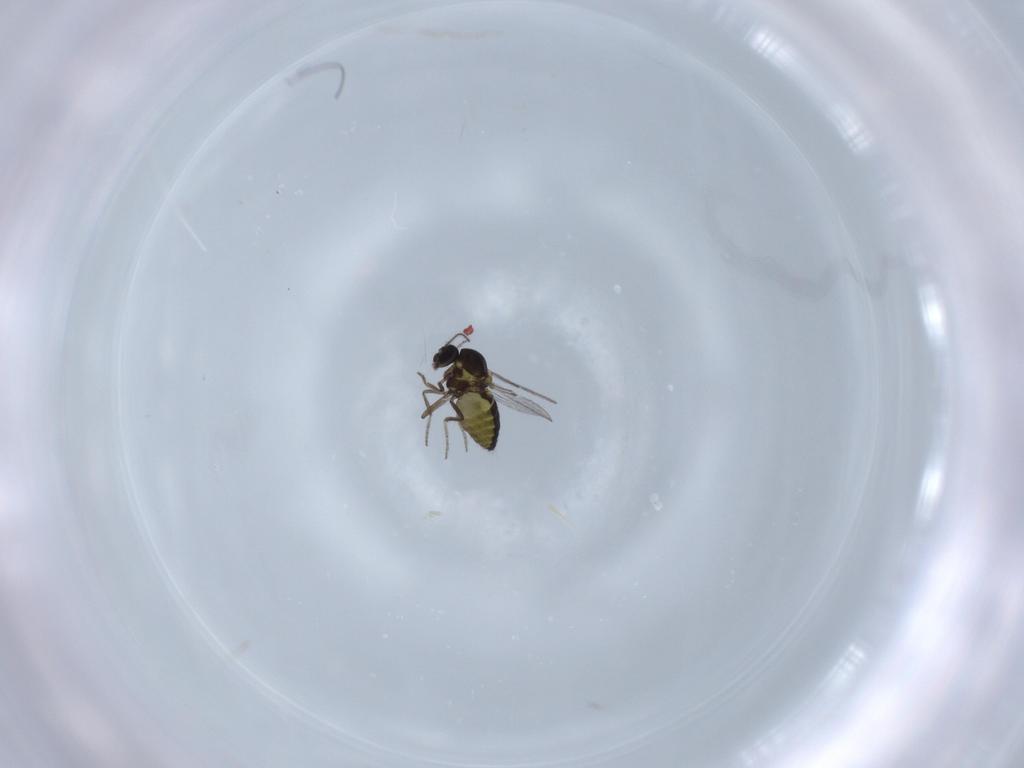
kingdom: Animalia
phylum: Arthropoda
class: Insecta
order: Diptera
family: Ceratopogonidae
